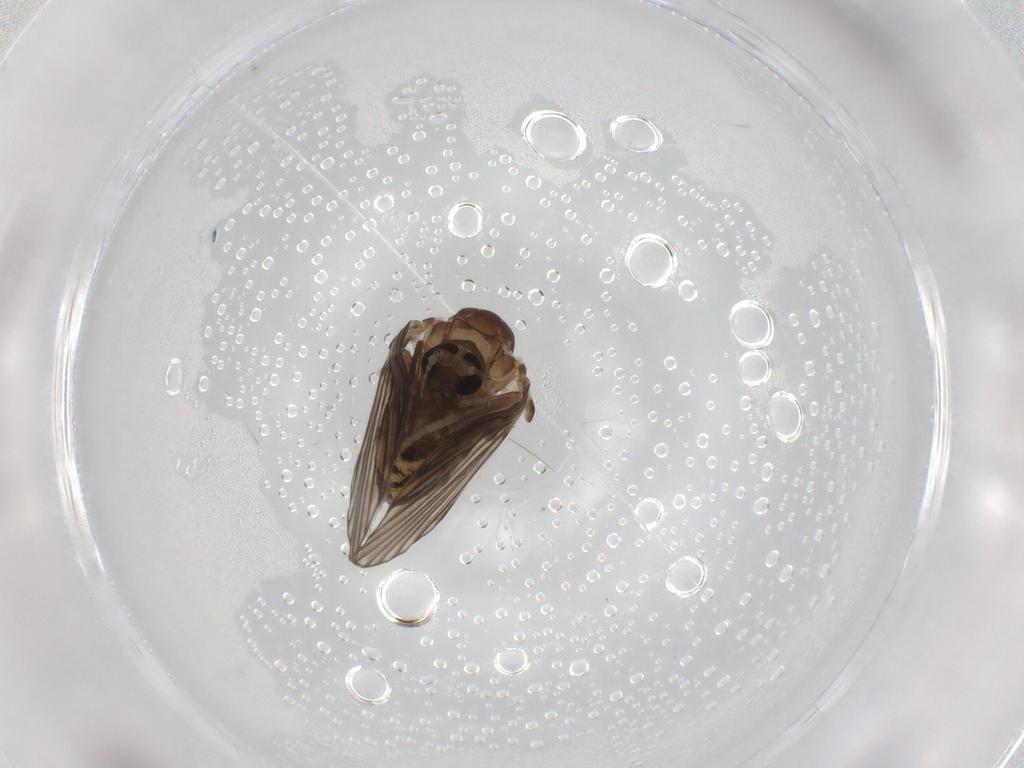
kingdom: Animalia
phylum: Arthropoda
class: Insecta
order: Diptera
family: Psychodidae
